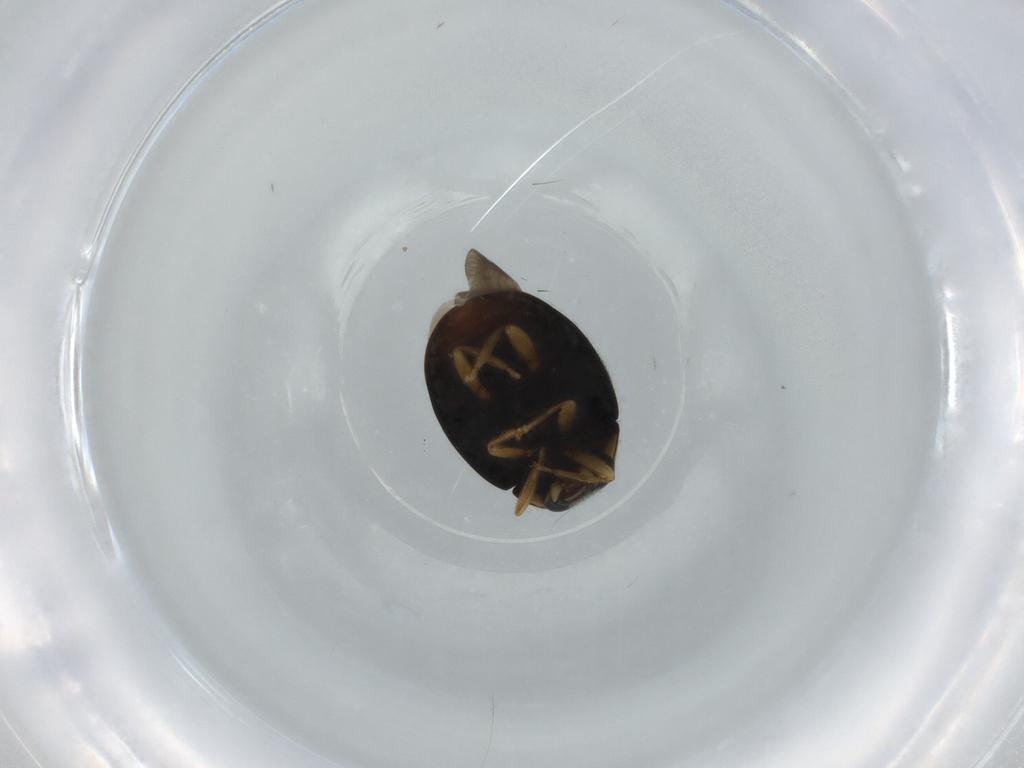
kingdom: Animalia
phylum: Arthropoda
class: Insecta
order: Coleoptera
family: Coccinellidae
